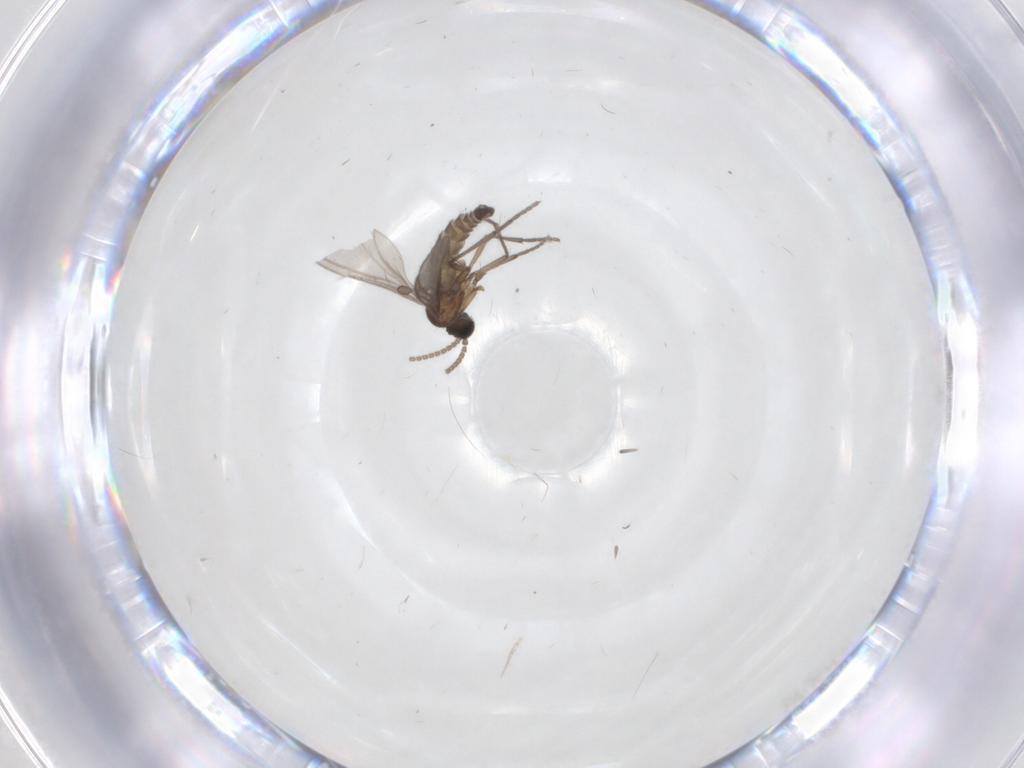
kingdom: Animalia
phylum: Arthropoda
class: Insecta
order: Diptera
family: Sciaridae
